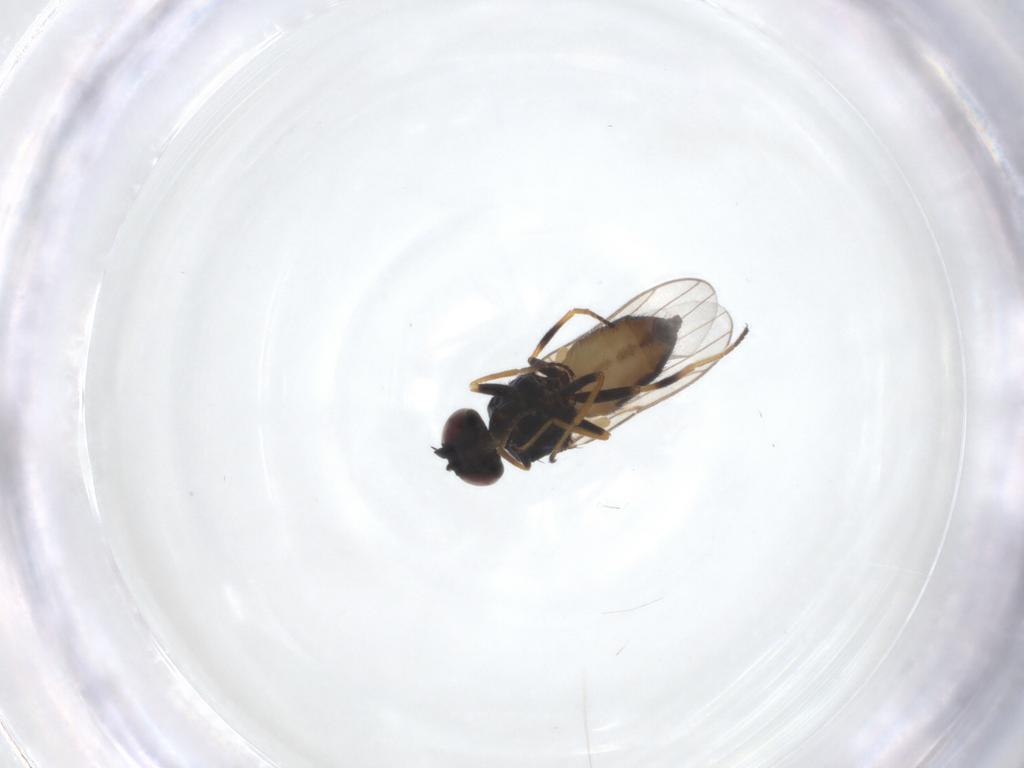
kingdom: Animalia
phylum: Arthropoda
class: Insecta
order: Diptera
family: Chloropidae
